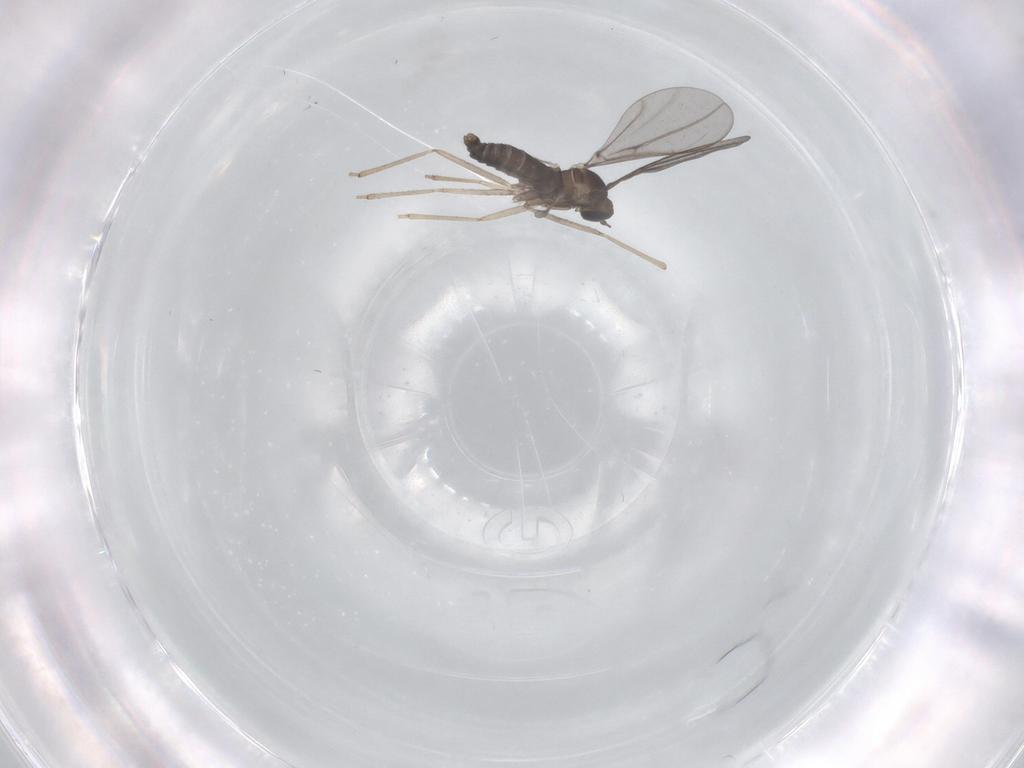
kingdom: Animalia
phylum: Arthropoda
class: Insecta
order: Diptera
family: Cecidomyiidae
